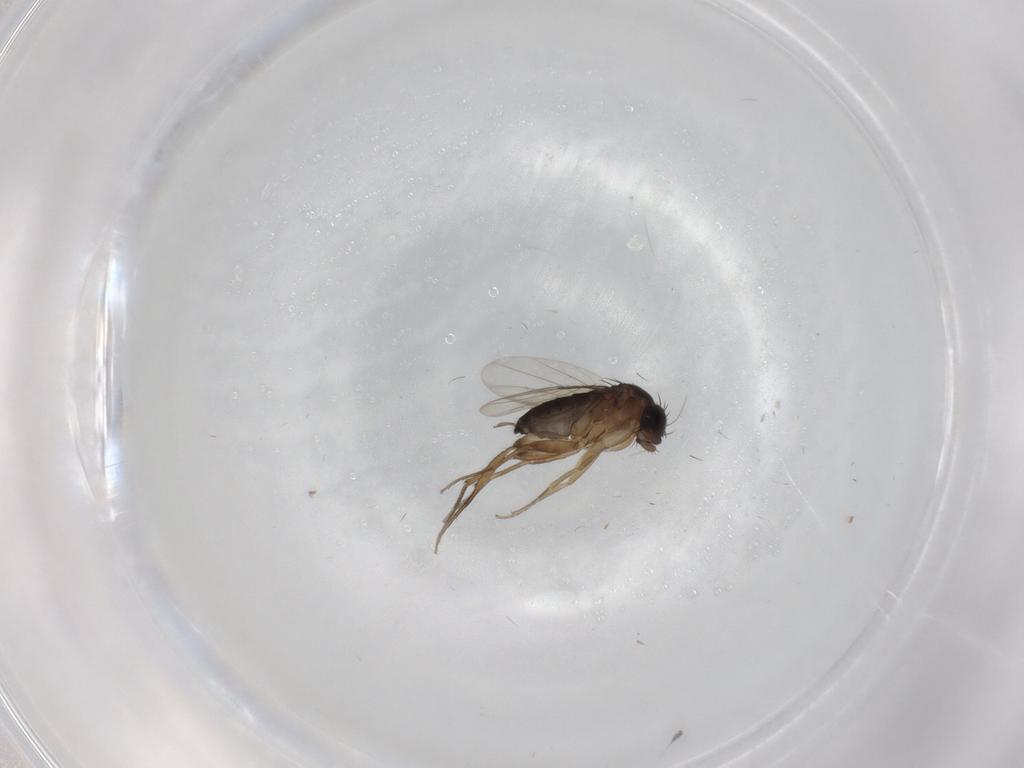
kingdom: Animalia
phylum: Arthropoda
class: Insecta
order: Diptera
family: Phoridae
